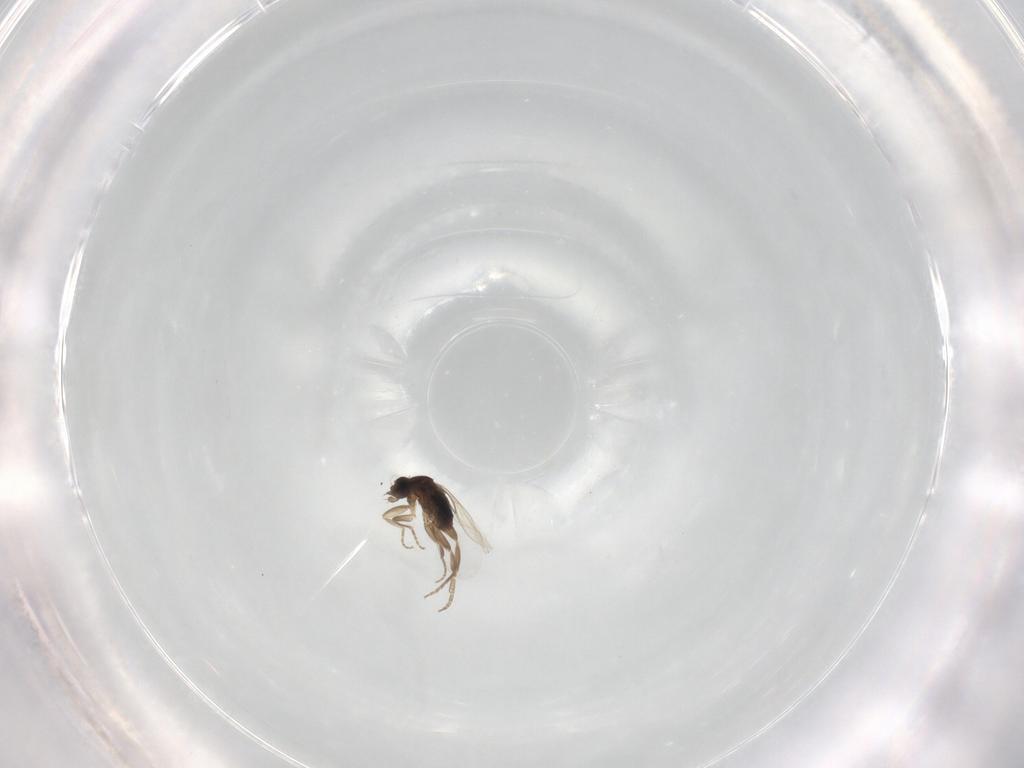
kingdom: Animalia
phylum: Arthropoda
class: Insecta
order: Diptera
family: Phoridae
